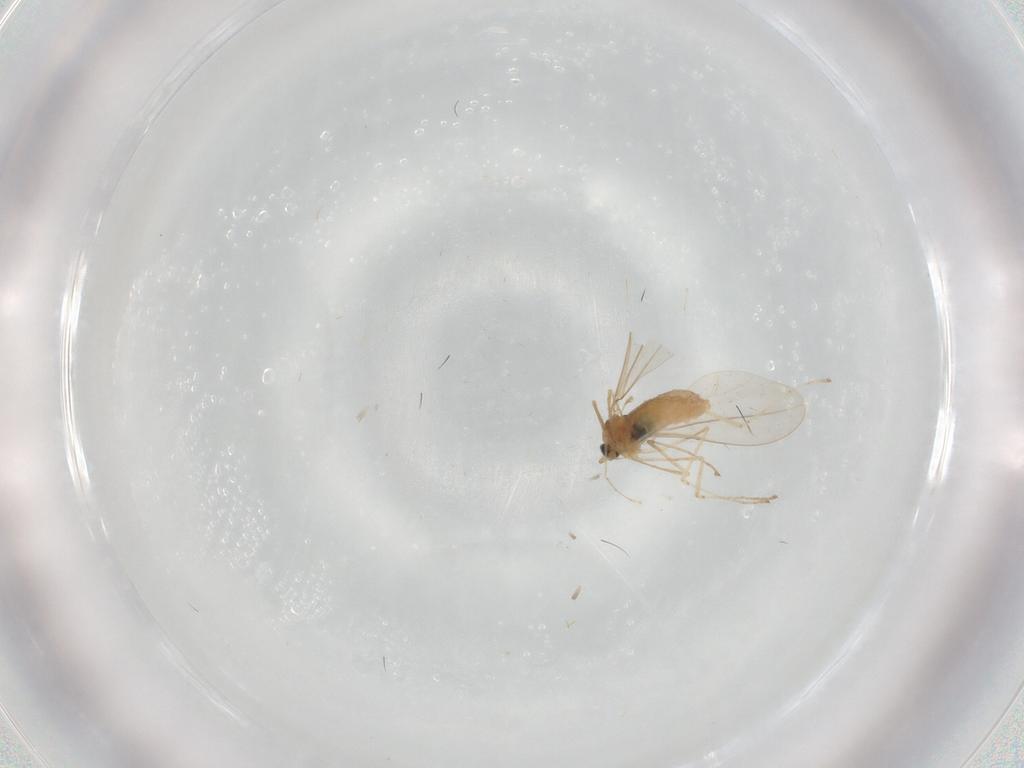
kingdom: Animalia
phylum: Arthropoda
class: Insecta
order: Diptera
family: Cecidomyiidae
